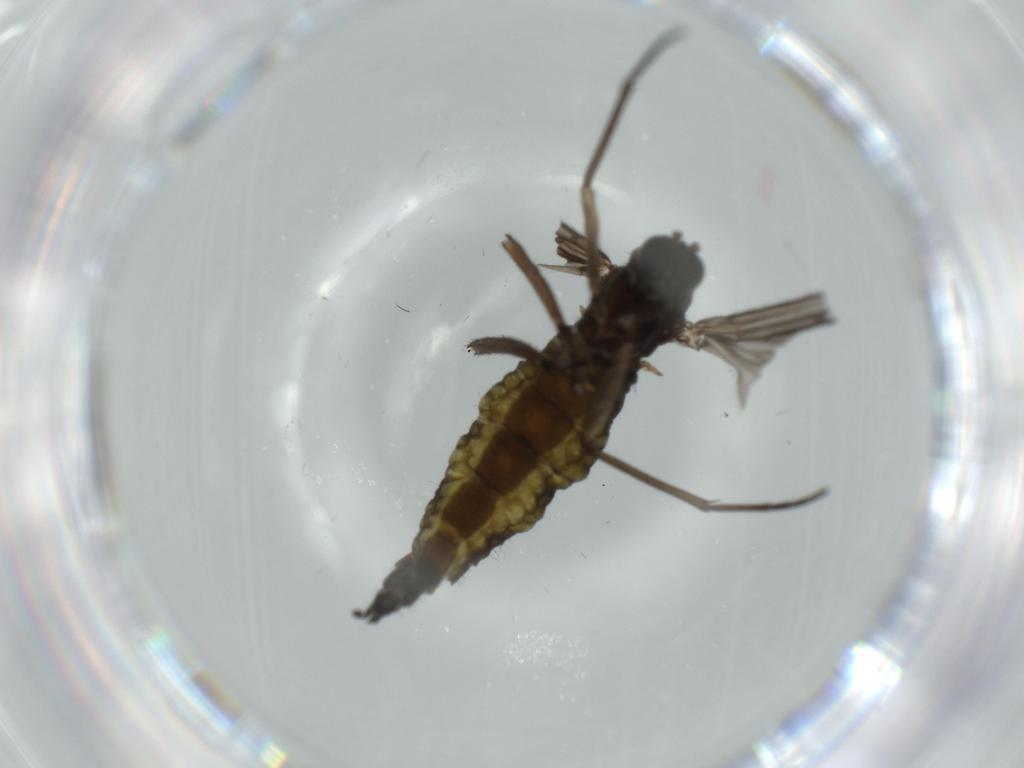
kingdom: Animalia
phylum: Arthropoda
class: Insecta
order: Diptera
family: Sciaridae
